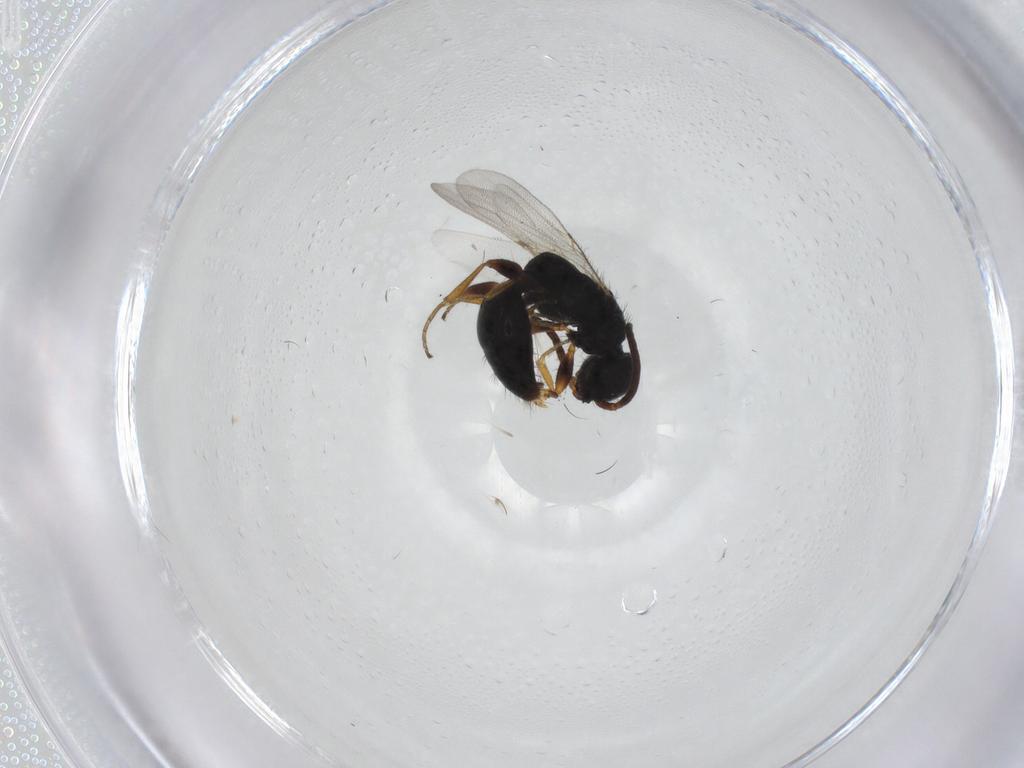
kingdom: Animalia
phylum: Arthropoda
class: Insecta
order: Hymenoptera
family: Bethylidae
